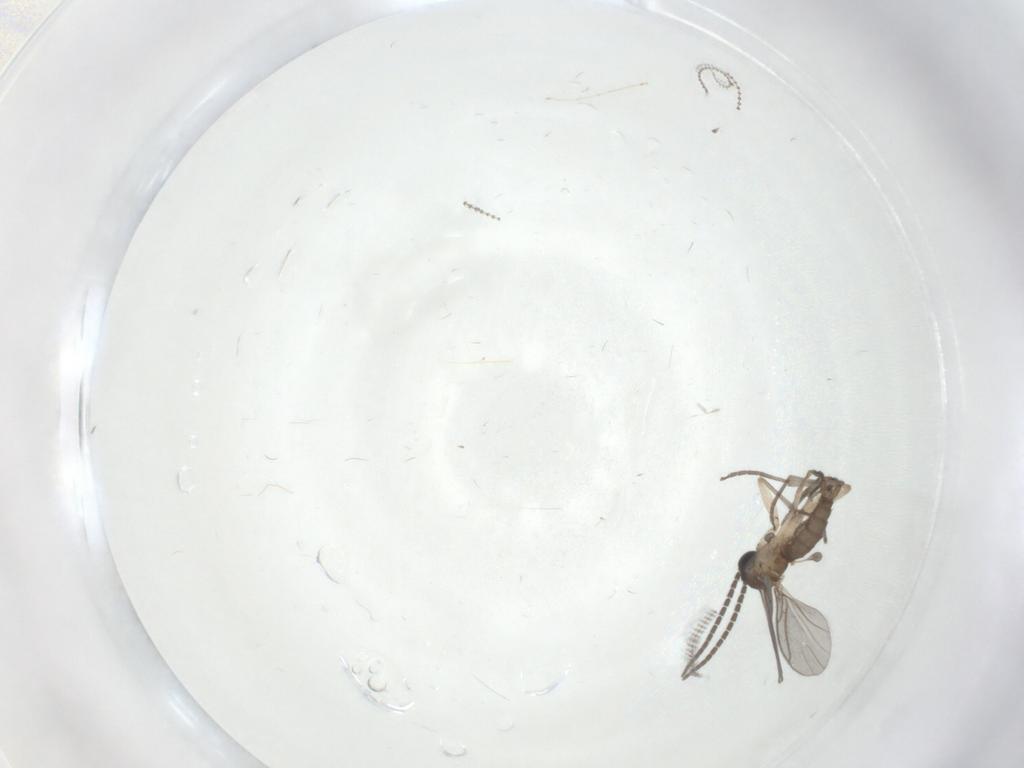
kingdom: Animalia
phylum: Arthropoda
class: Insecta
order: Diptera
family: Sciaridae
